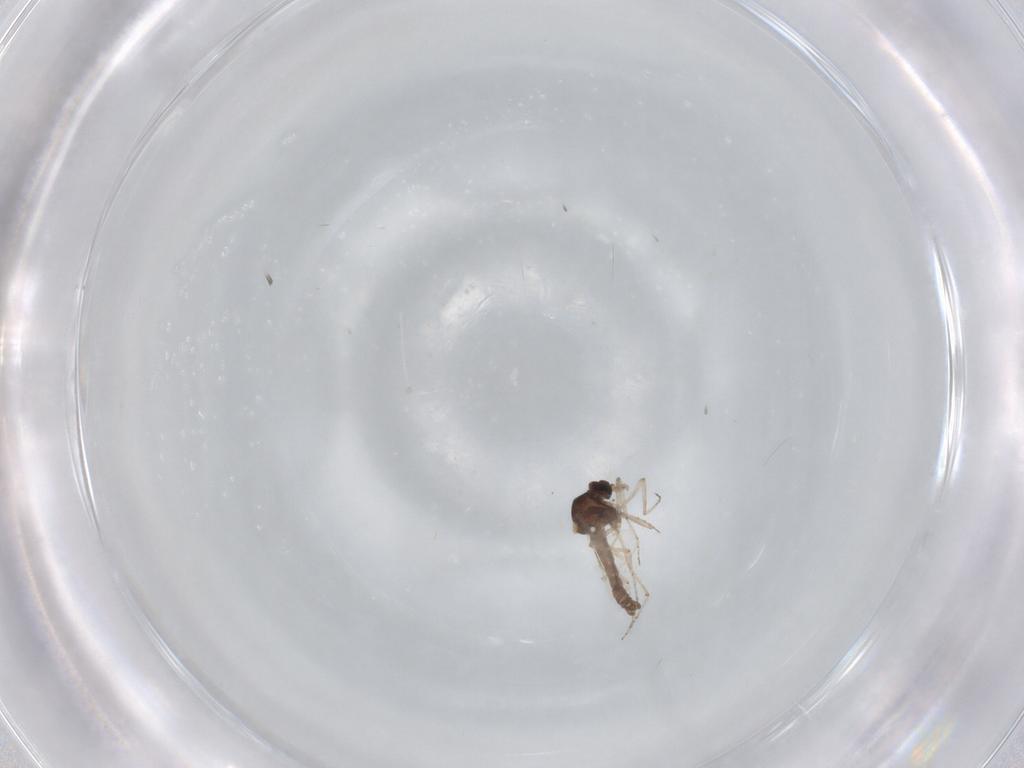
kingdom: Animalia
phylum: Arthropoda
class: Insecta
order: Diptera
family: Ceratopogonidae
